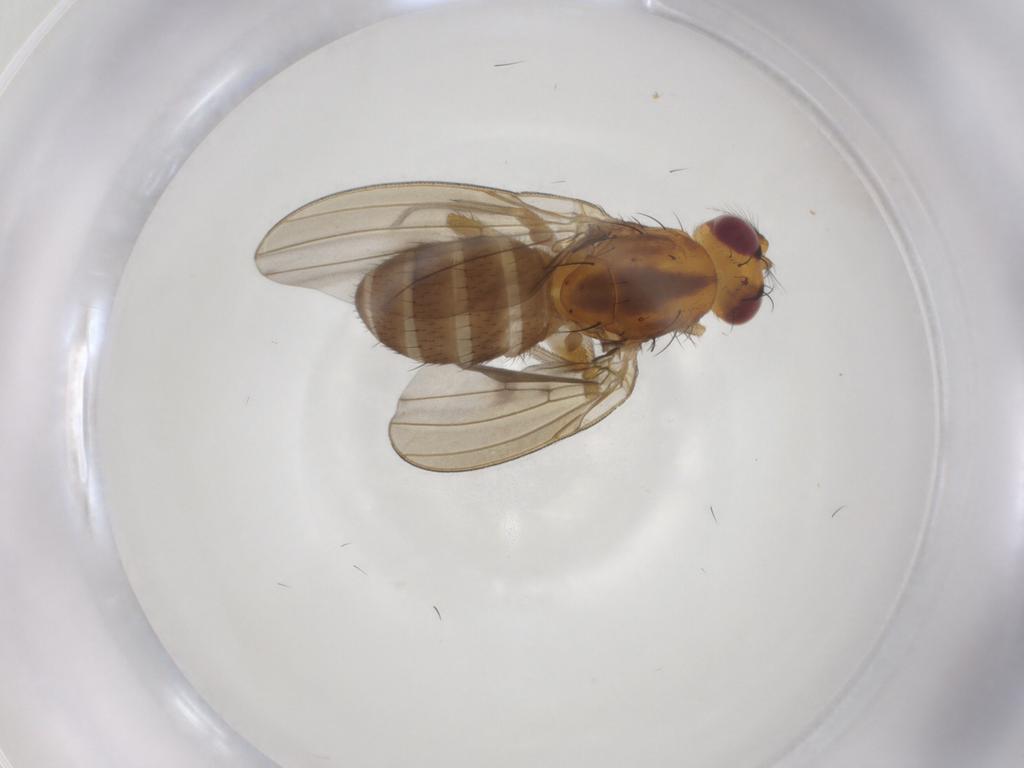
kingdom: Animalia
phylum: Arthropoda
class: Insecta
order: Diptera
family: Lauxaniidae
